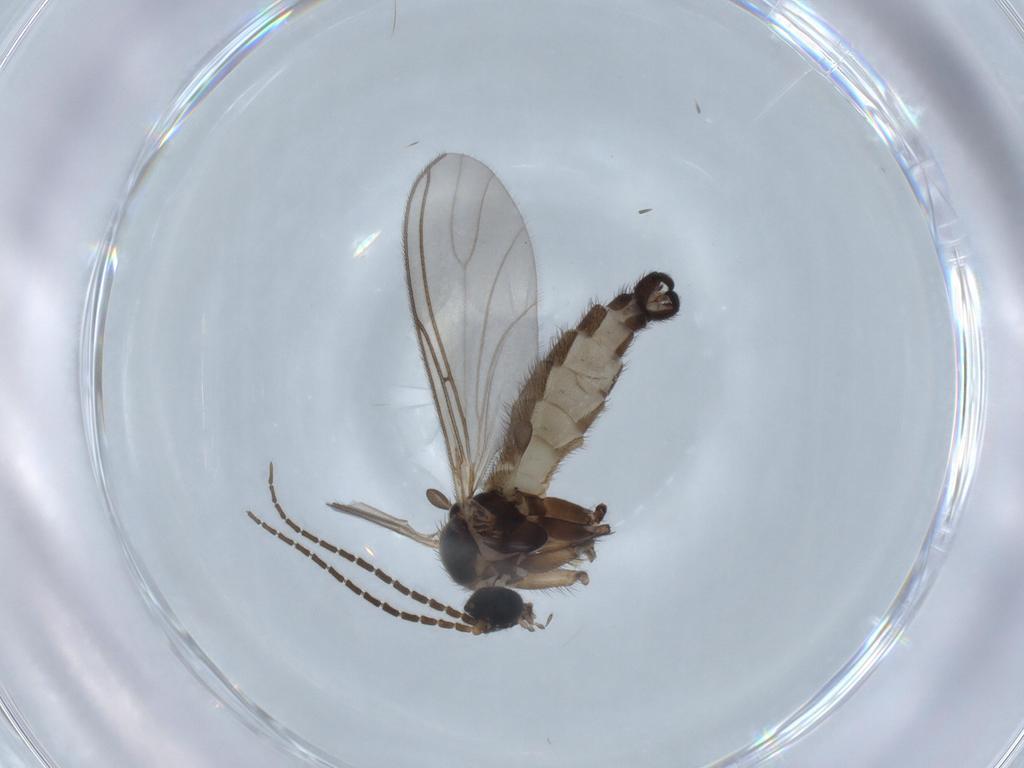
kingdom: Animalia
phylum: Arthropoda
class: Insecta
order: Diptera
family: Sciaridae
